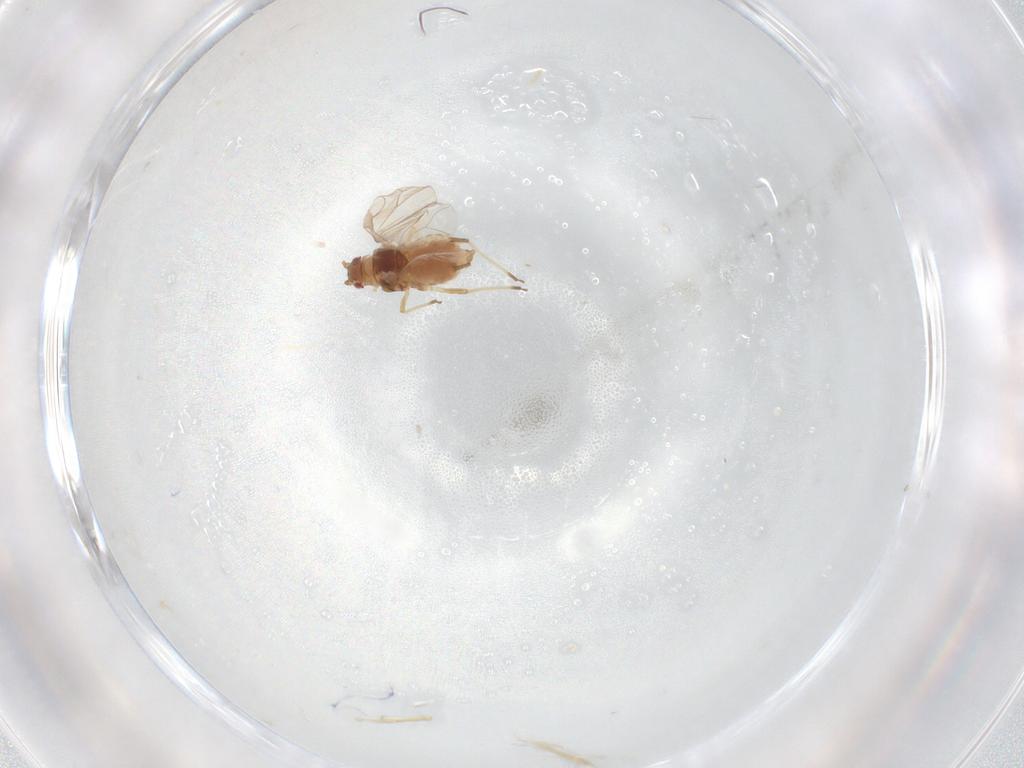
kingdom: Animalia
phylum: Arthropoda
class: Insecta
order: Hemiptera
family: Aphididae
